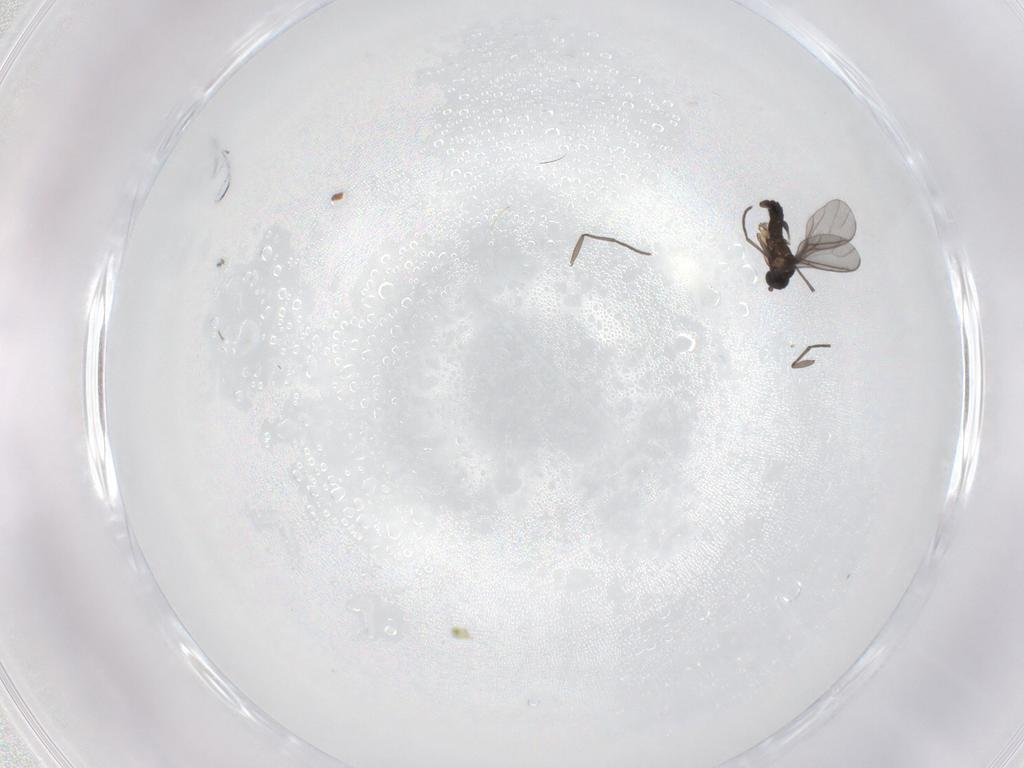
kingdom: Animalia
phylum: Arthropoda
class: Insecta
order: Diptera
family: Sciaridae
